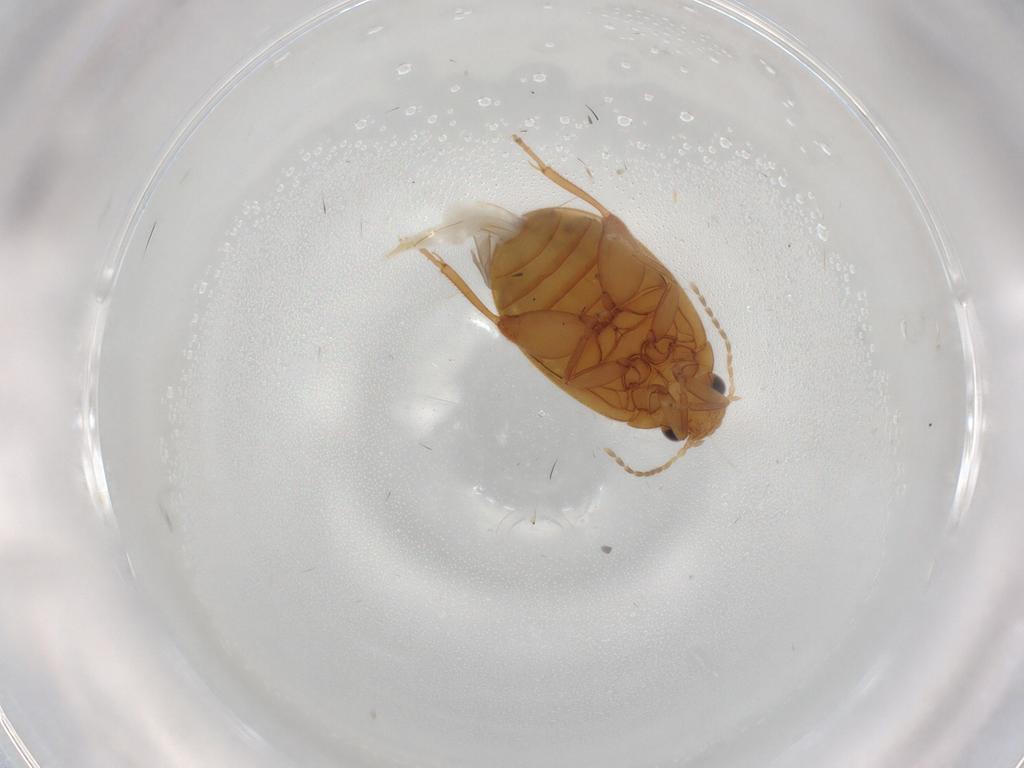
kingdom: Animalia
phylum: Arthropoda
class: Insecta
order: Coleoptera
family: Scirtidae
